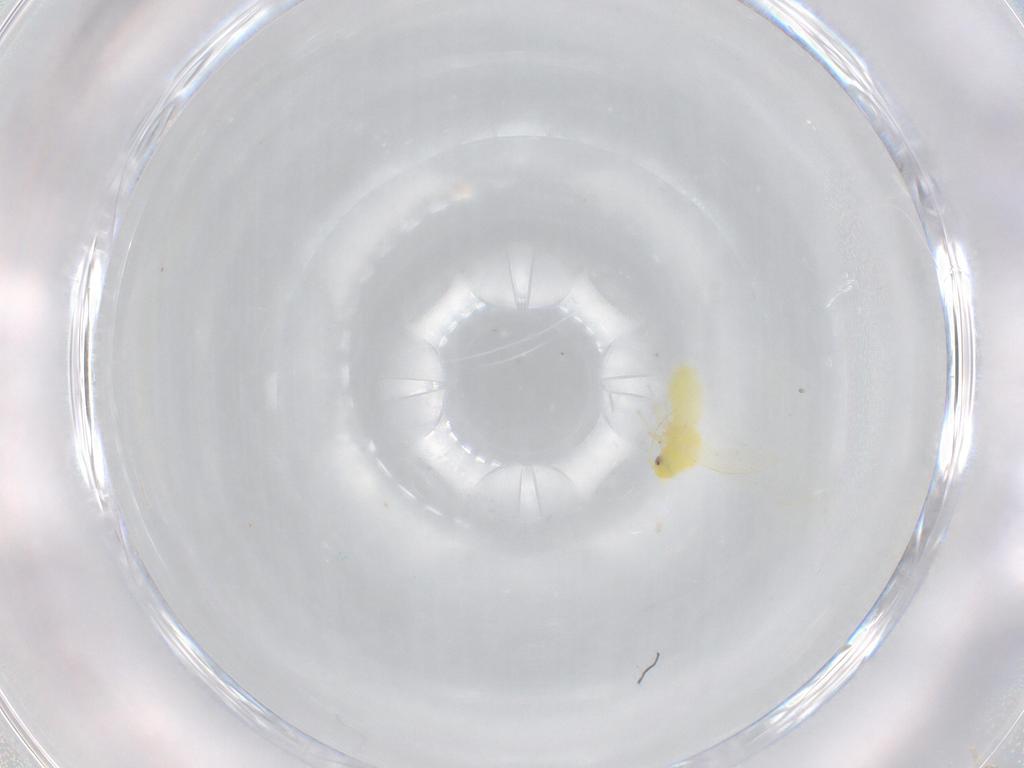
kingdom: Animalia
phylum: Arthropoda
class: Insecta
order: Hemiptera
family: Aleyrodidae
